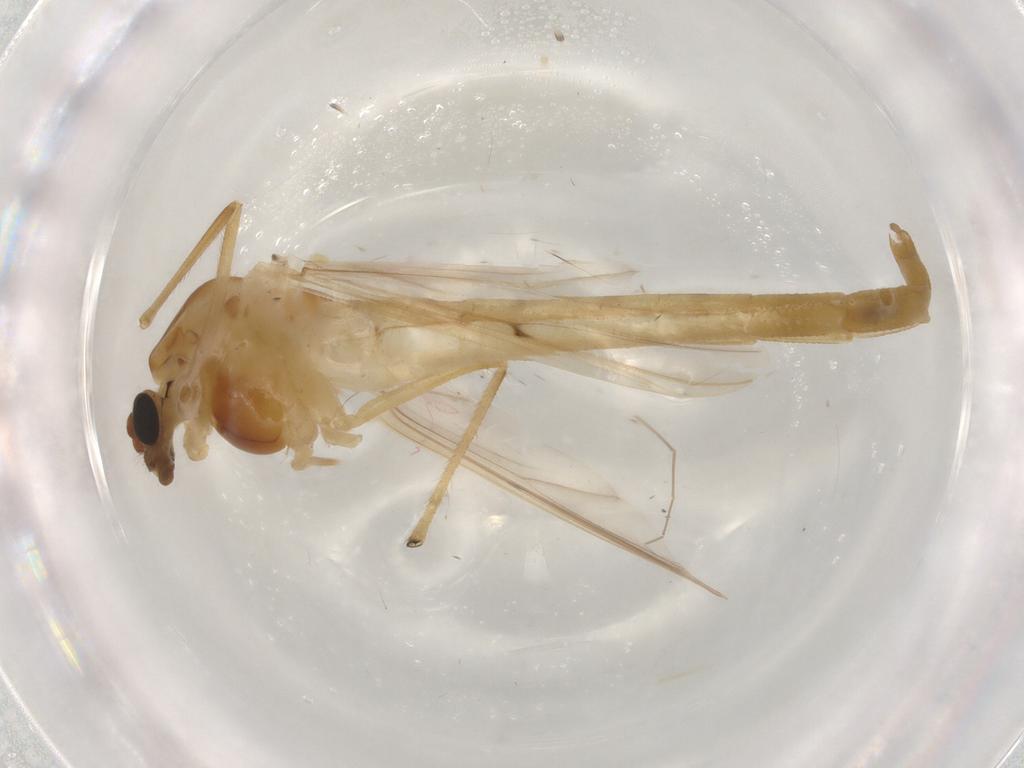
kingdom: Animalia
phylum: Arthropoda
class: Insecta
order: Diptera
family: Chironomidae
